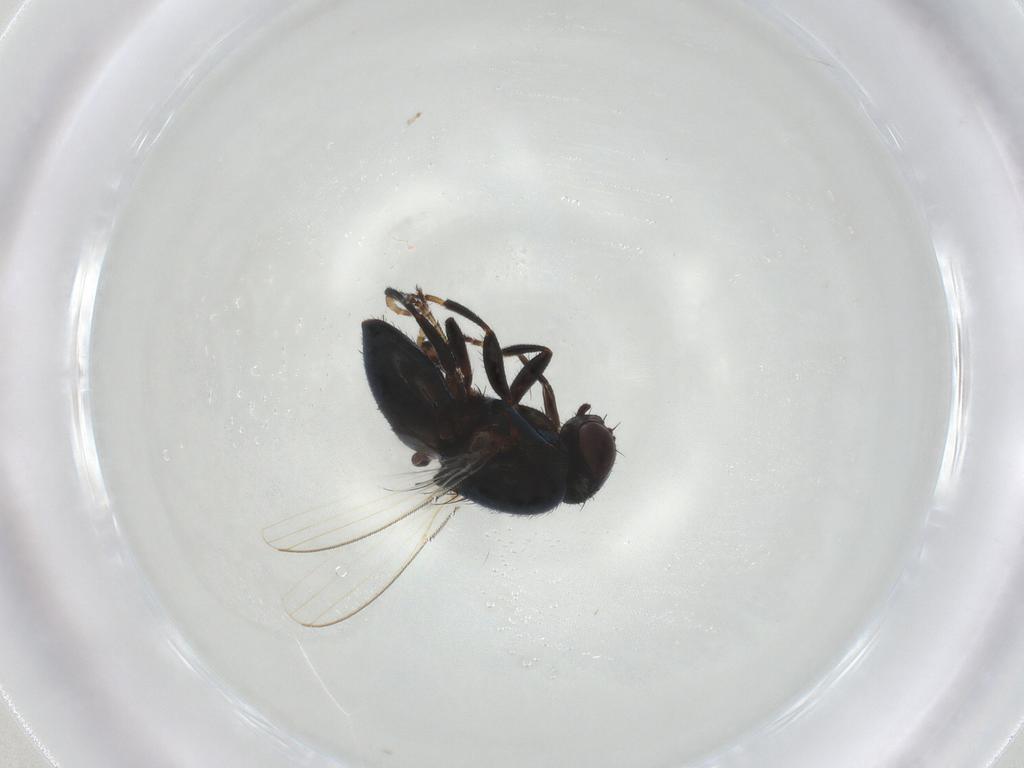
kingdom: Animalia
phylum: Arthropoda
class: Insecta
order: Diptera
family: Milichiidae
